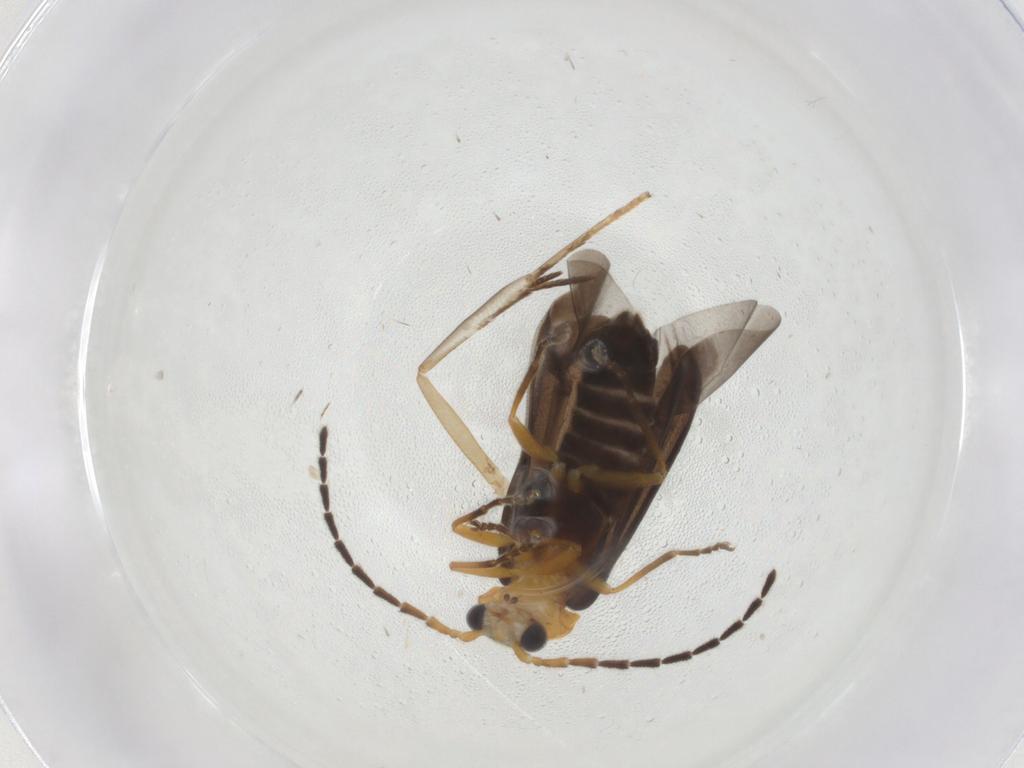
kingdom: Animalia
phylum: Arthropoda
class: Insecta
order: Coleoptera
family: Cantharidae
